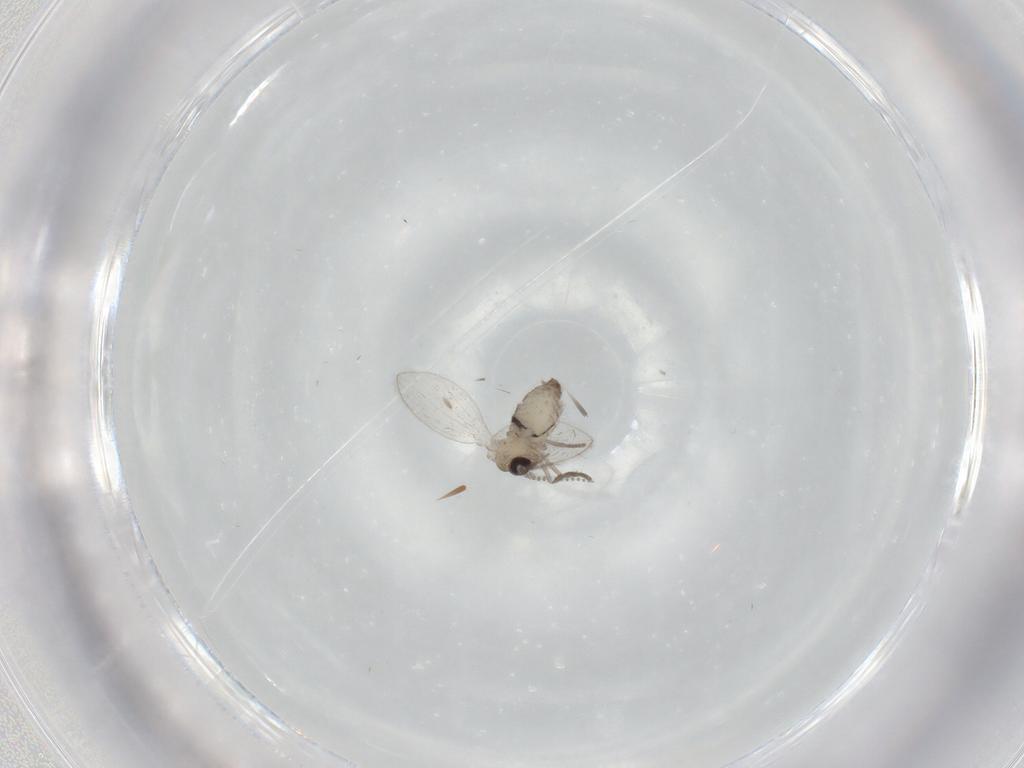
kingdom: Animalia
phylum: Arthropoda
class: Insecta
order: Diptera
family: Psychodidae
